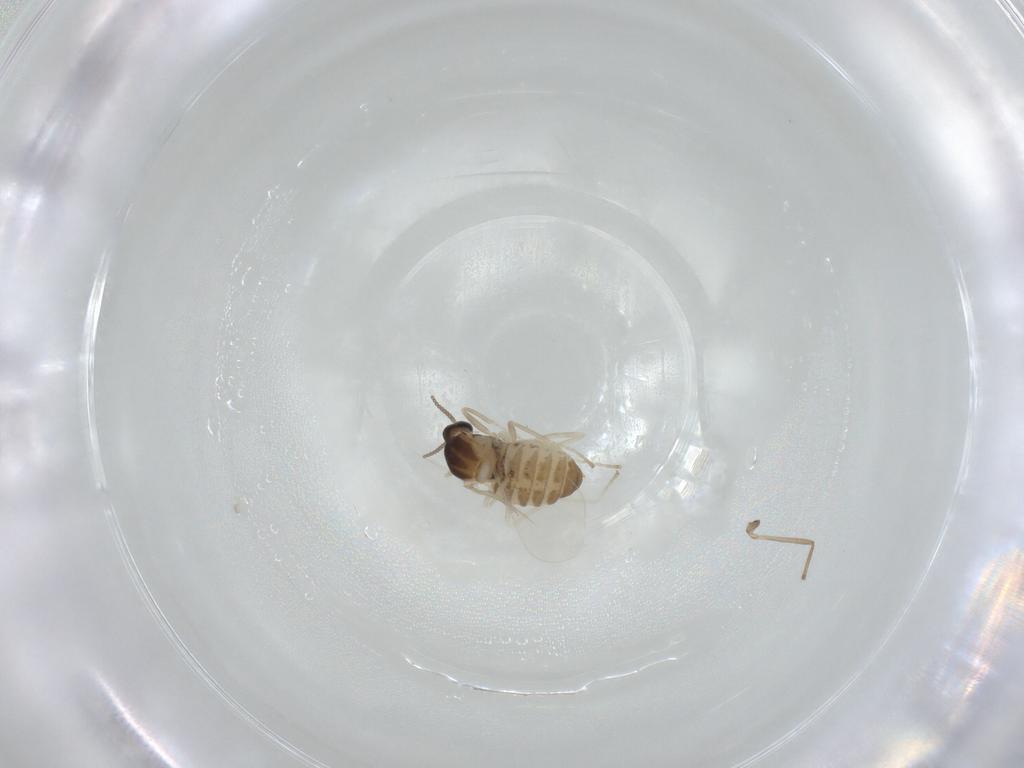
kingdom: Animalia
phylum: Arthropoda
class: Insecta
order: Diptera
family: Cecidomyiidae
